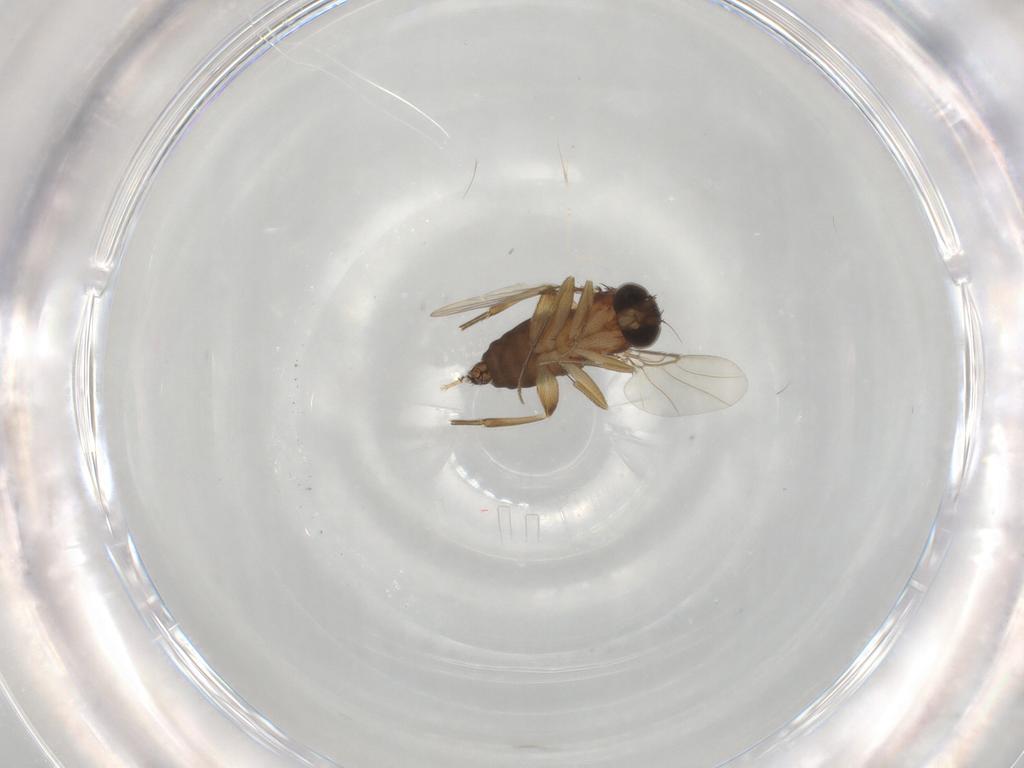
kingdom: Animalia
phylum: Arthropoda
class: Insecta
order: Diptera
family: Phoridae
